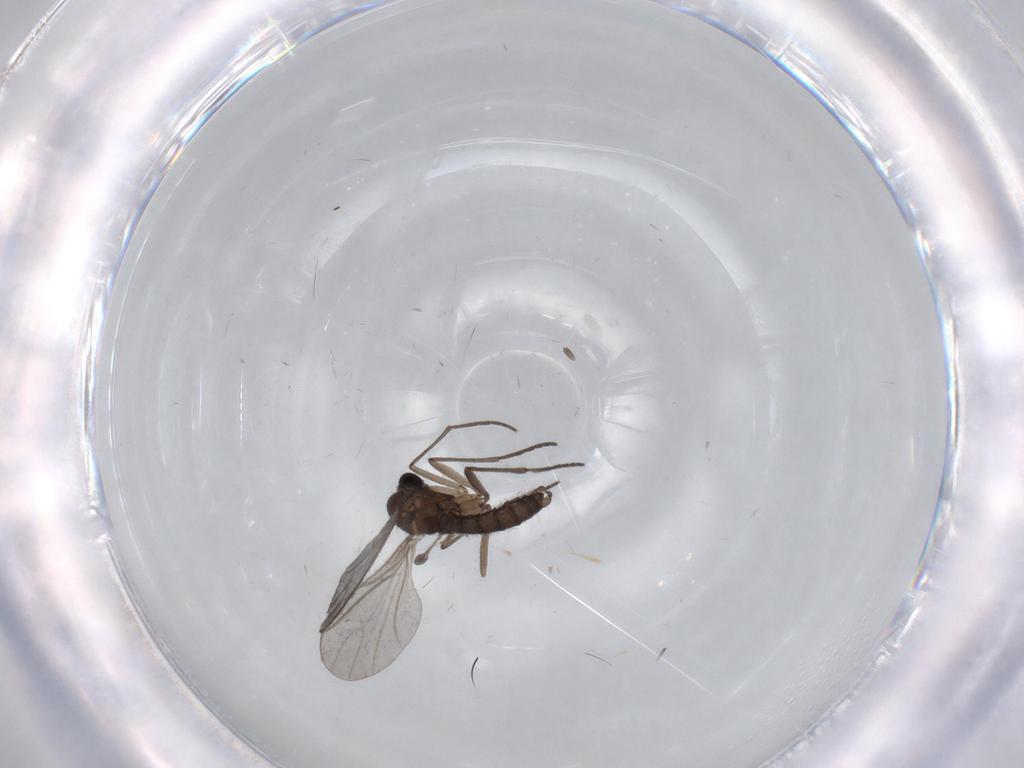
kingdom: Animalia
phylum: Arthropoda
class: Insecta
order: Diptera
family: Sciaridae
